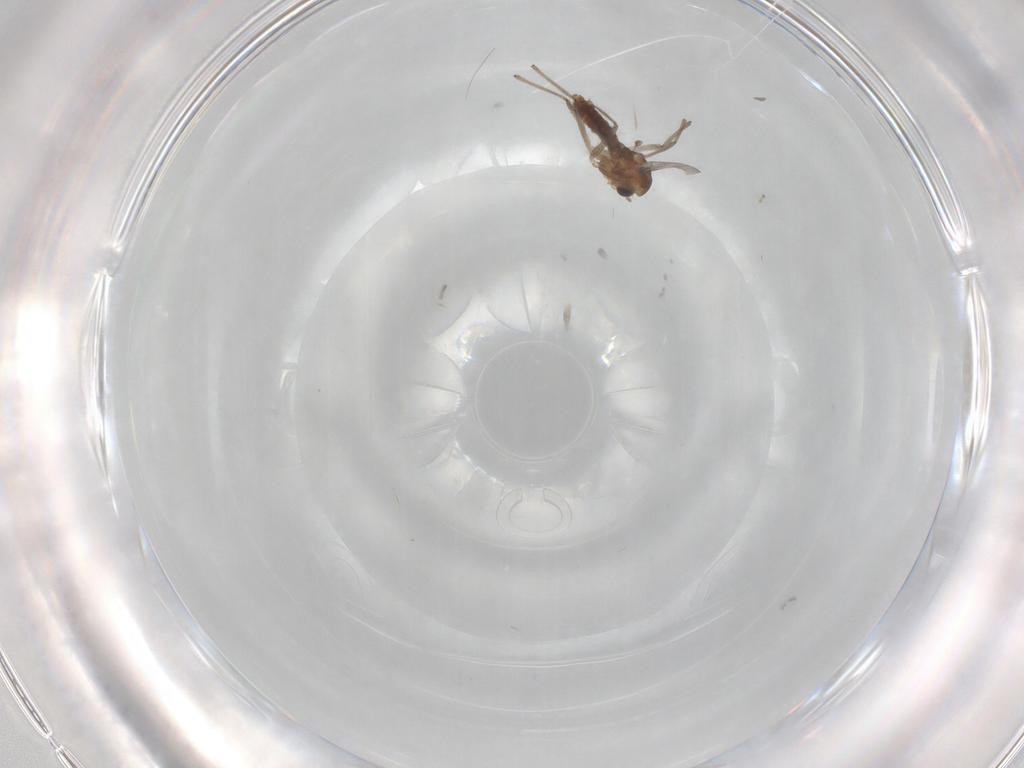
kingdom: Animalia
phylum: Arthropoda
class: Insecta
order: Diptera
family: Chironomidae
